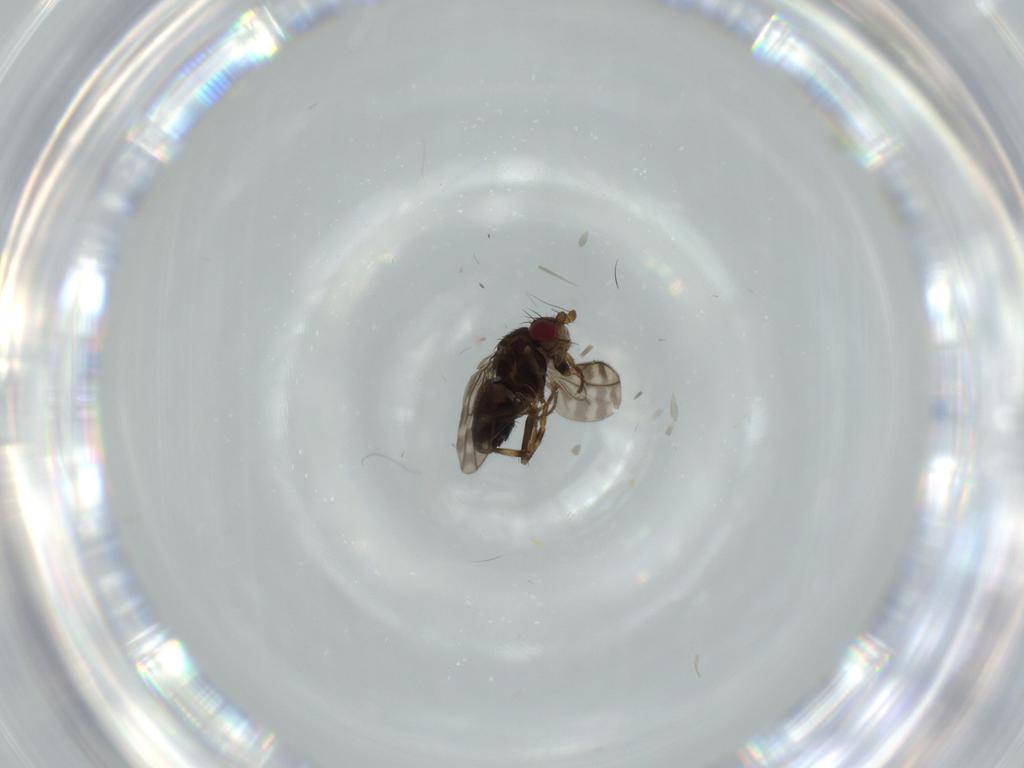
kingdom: Animalia
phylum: Arthropoda
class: Insecta
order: Diptera
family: Sphaeroceridae
